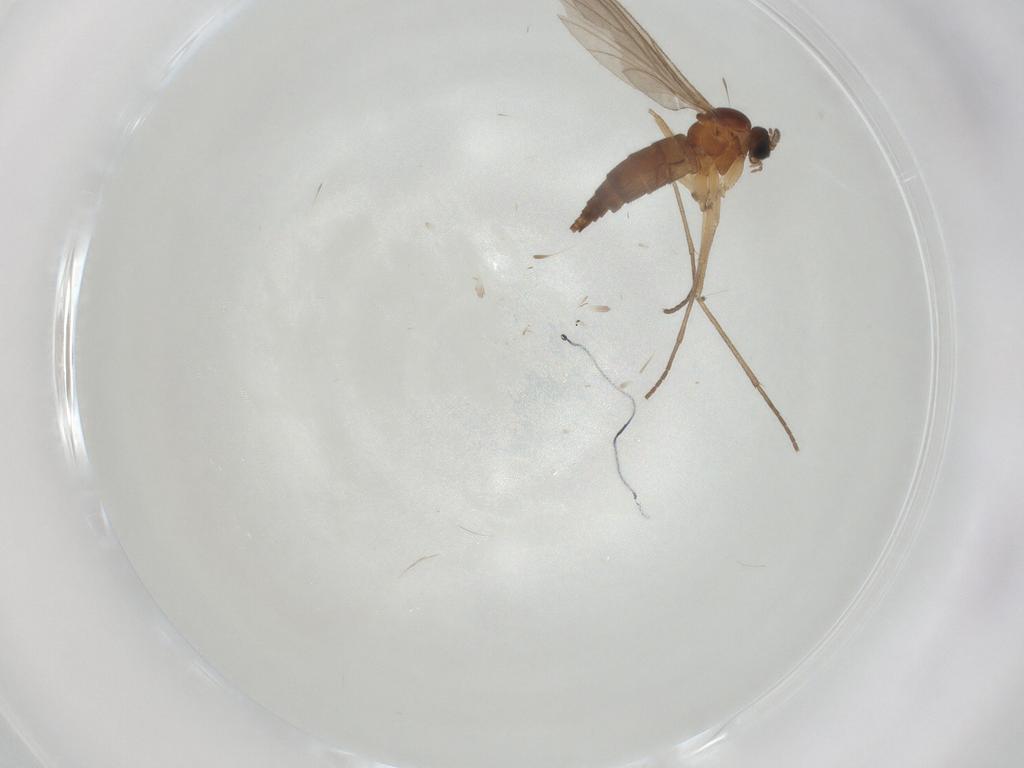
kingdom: Animalia
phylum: Arthropoda
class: Insecta
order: Diptera
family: Sciaridae
